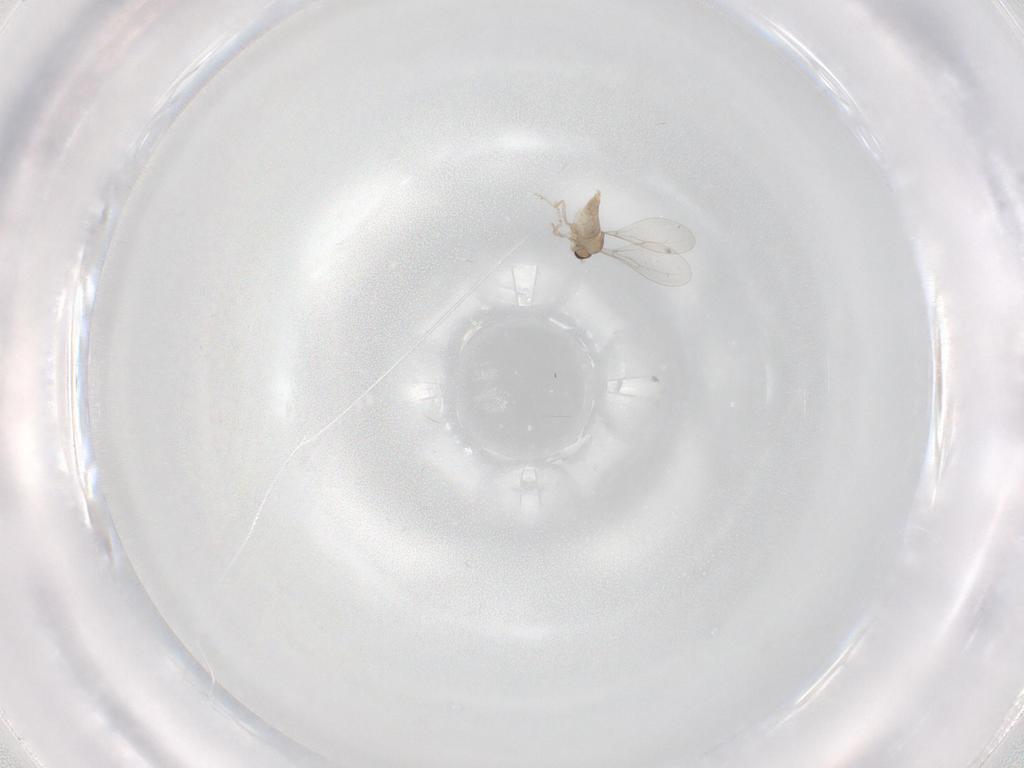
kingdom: Animalia
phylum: Arthropoda
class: Insecta
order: Diptera
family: Cecidomyiidae
